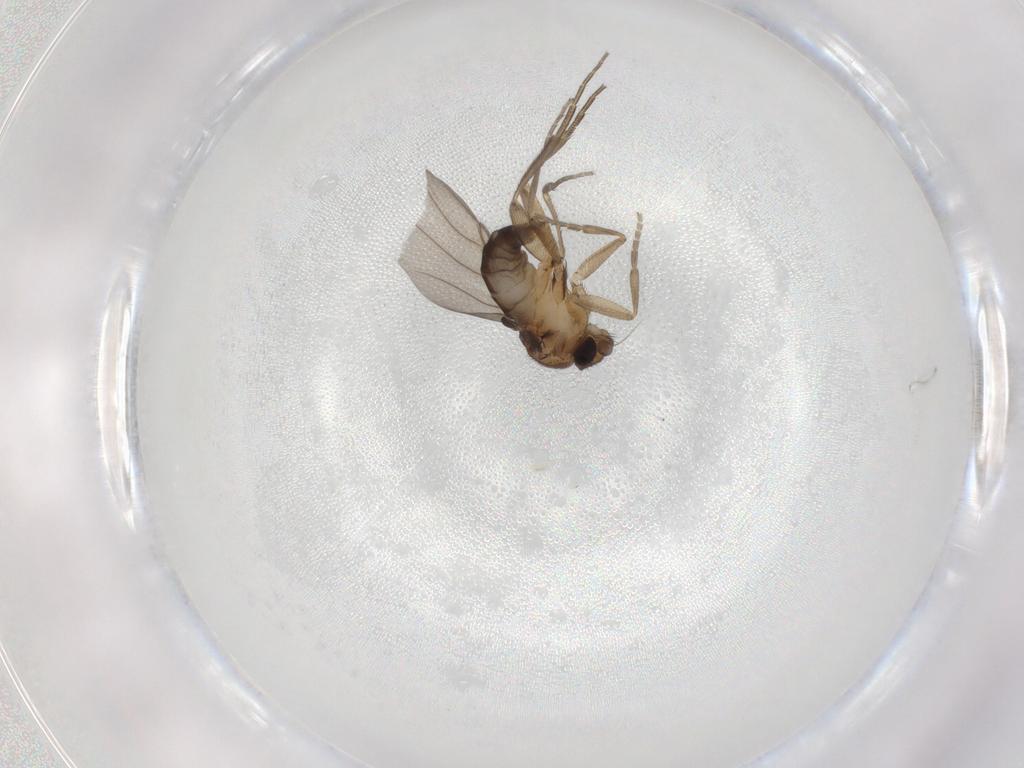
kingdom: Animalia
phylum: Arthropoda
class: Insecta
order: Diptera
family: Phoridae
